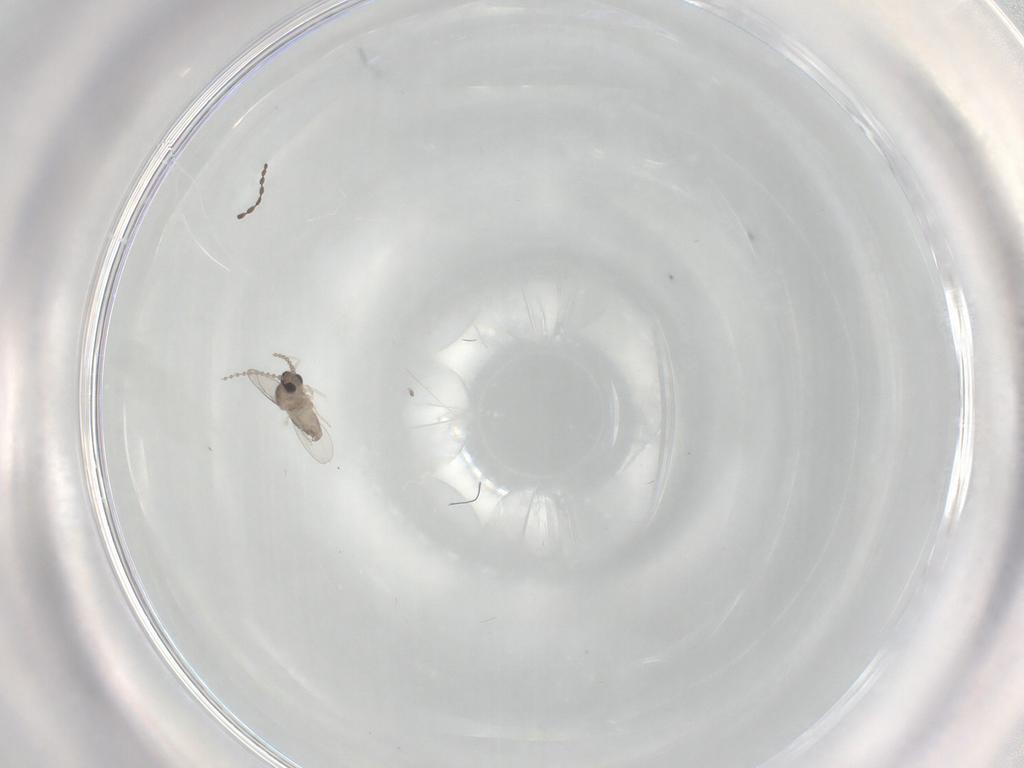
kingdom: Animalia
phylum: Arthropoda
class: Insecta
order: Diptera
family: Cecidomyiidae
